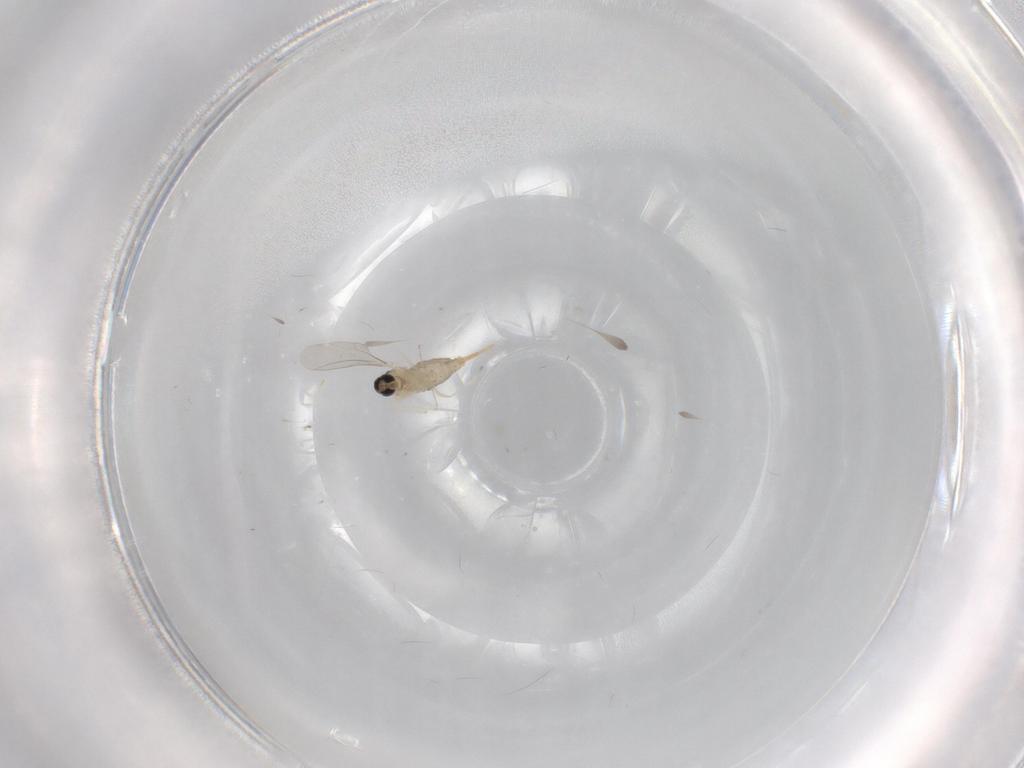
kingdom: Animalia
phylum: Arthropoda
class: Insecta
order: Diptera
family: Cecidomyiidae
